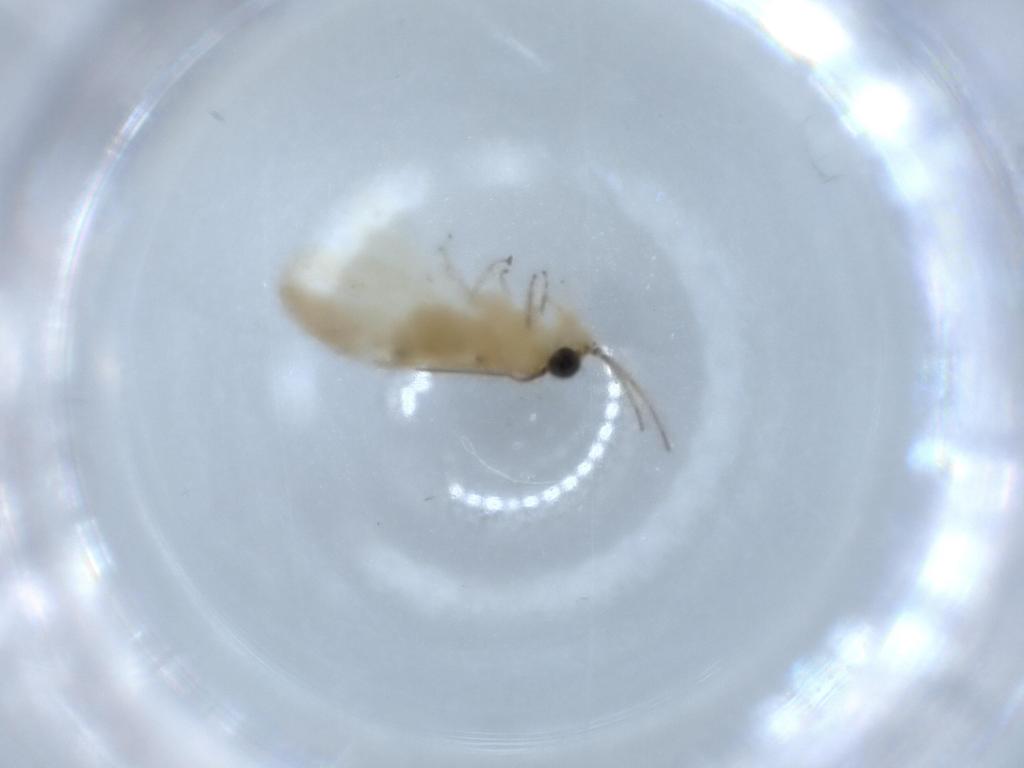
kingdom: Animalia
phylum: Arthropoda
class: Insecta
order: Psocodea
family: Caeciliusidae
